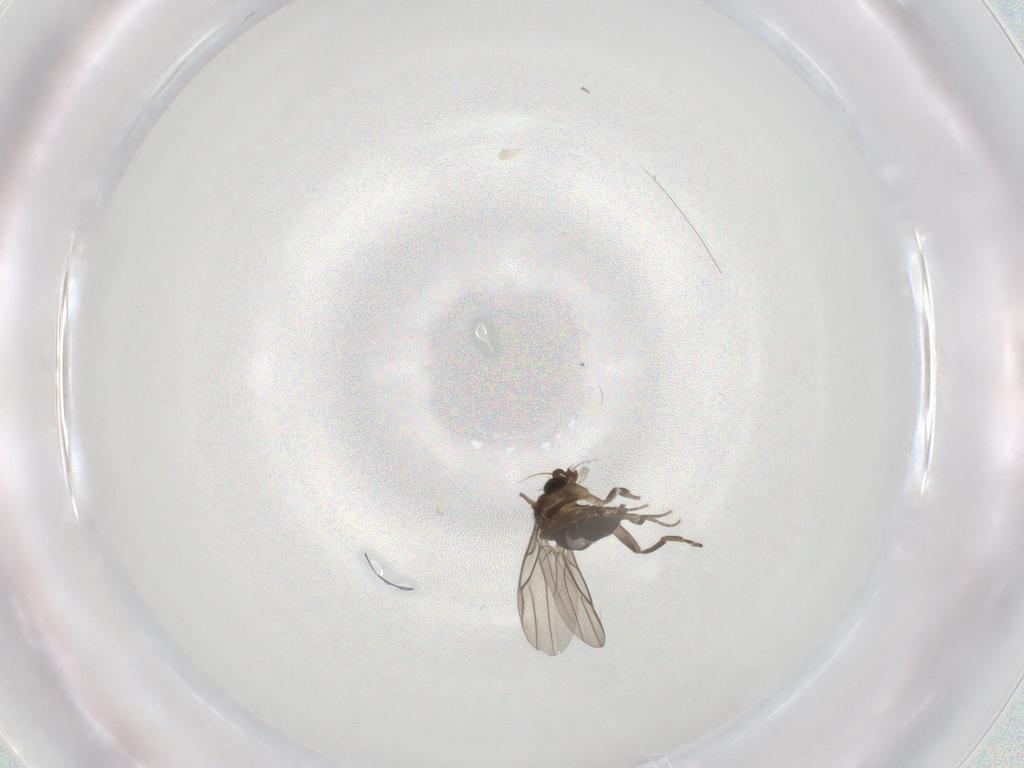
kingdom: Animalia
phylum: Arthropoda
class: Insecta
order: Diptera
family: Phoridae
